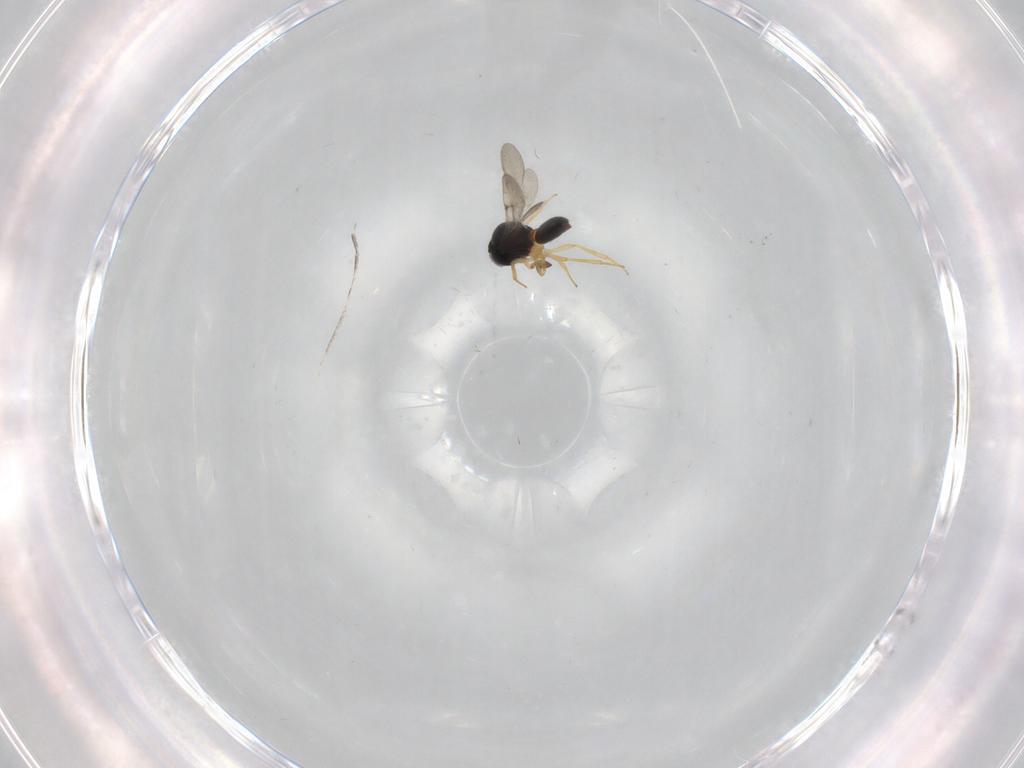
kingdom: Animalia
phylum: Arthropoda
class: Insecta
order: Hymenoptera
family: Scelionidae
